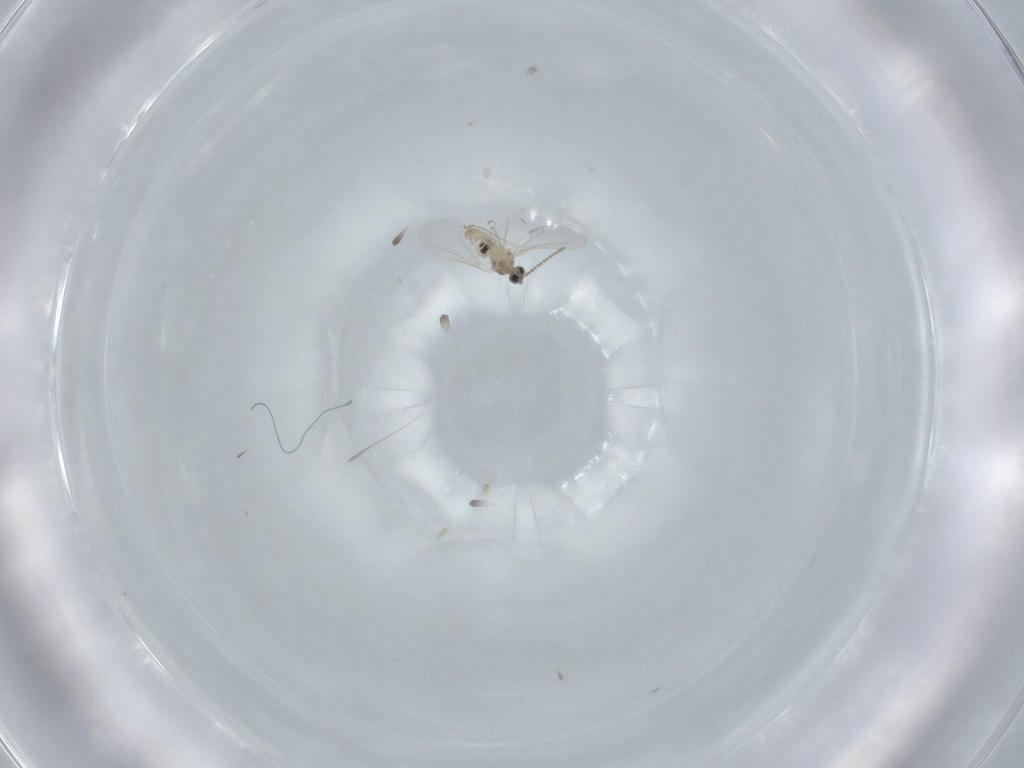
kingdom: Animalia
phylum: Arthropoda
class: Insecta
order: Diptera
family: Cecidomyiidae
